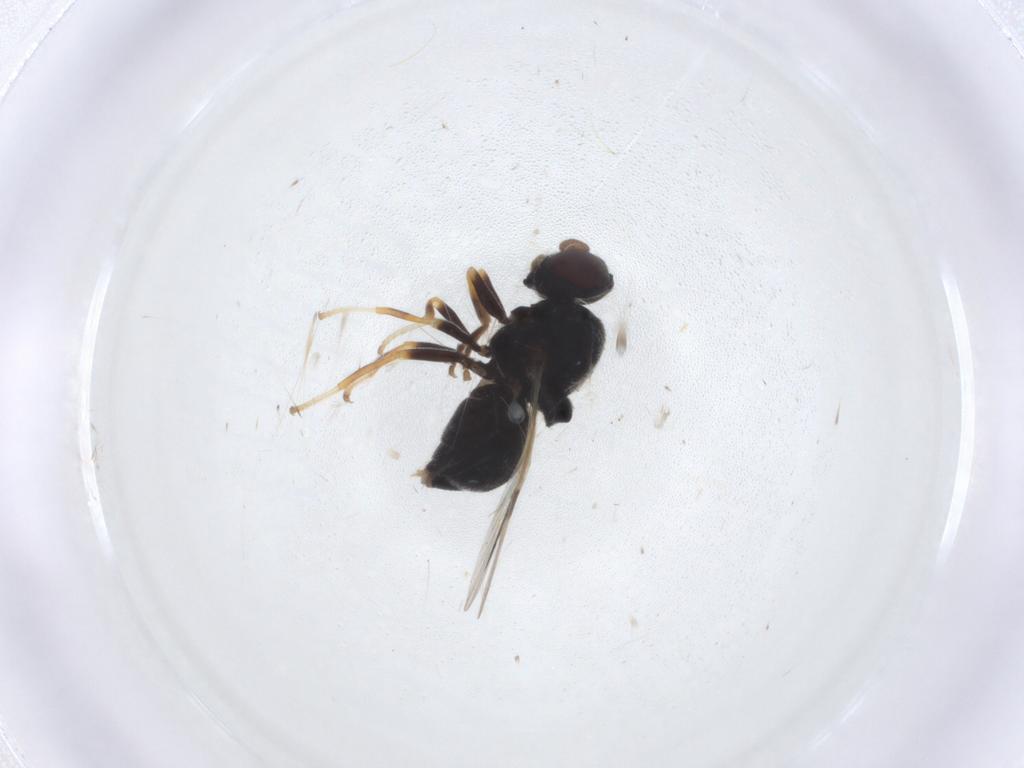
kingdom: Animalia
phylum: Arthropoda
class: Insecta
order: Diptera
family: Stratiomyidae
